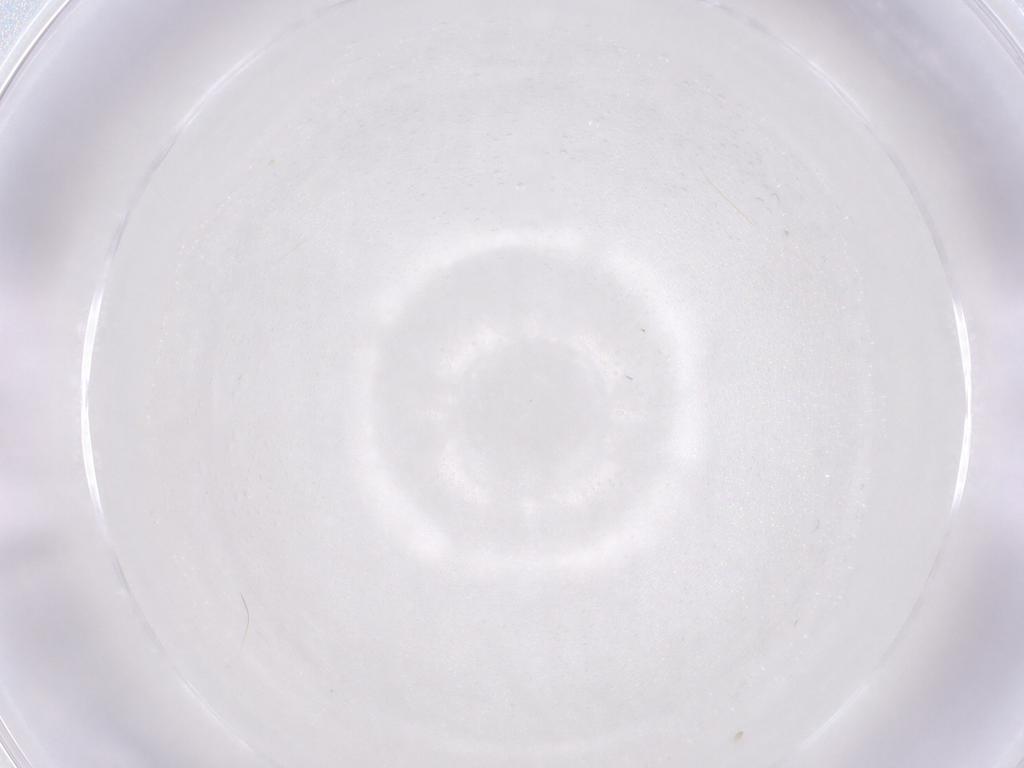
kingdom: Animalia
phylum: Arthropoda
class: Arachnida
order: Araneae
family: Sparassidae
